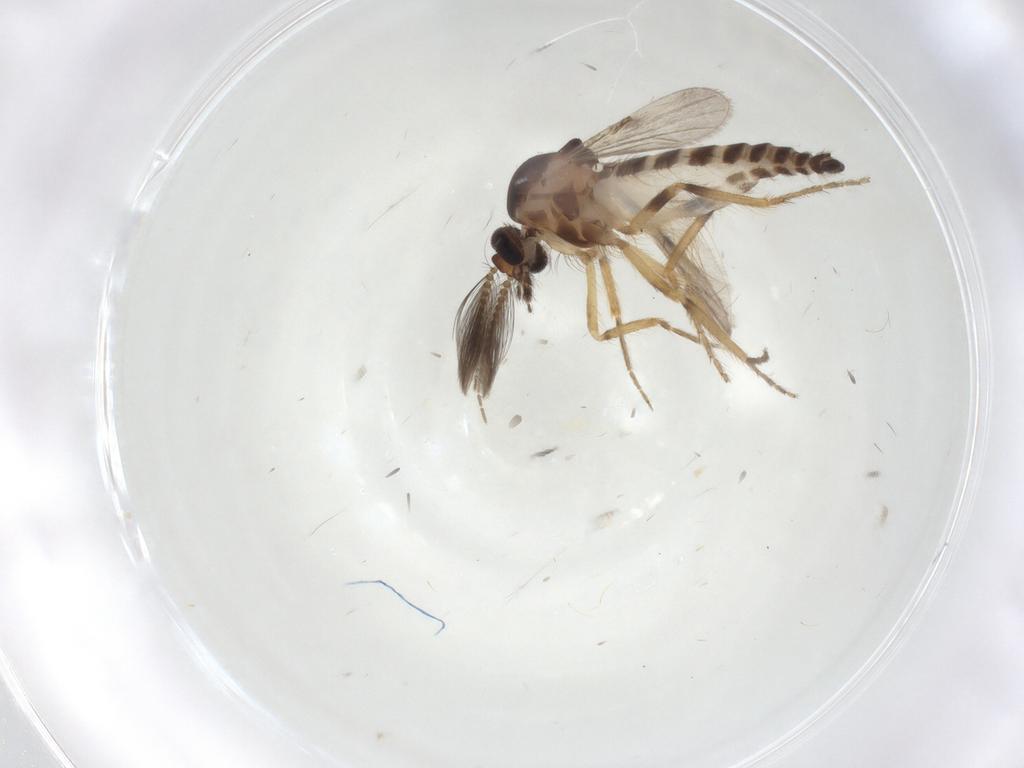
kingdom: Animalia
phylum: Arthropoda
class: Insecta
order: Diptera
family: Ceratopogonidae
